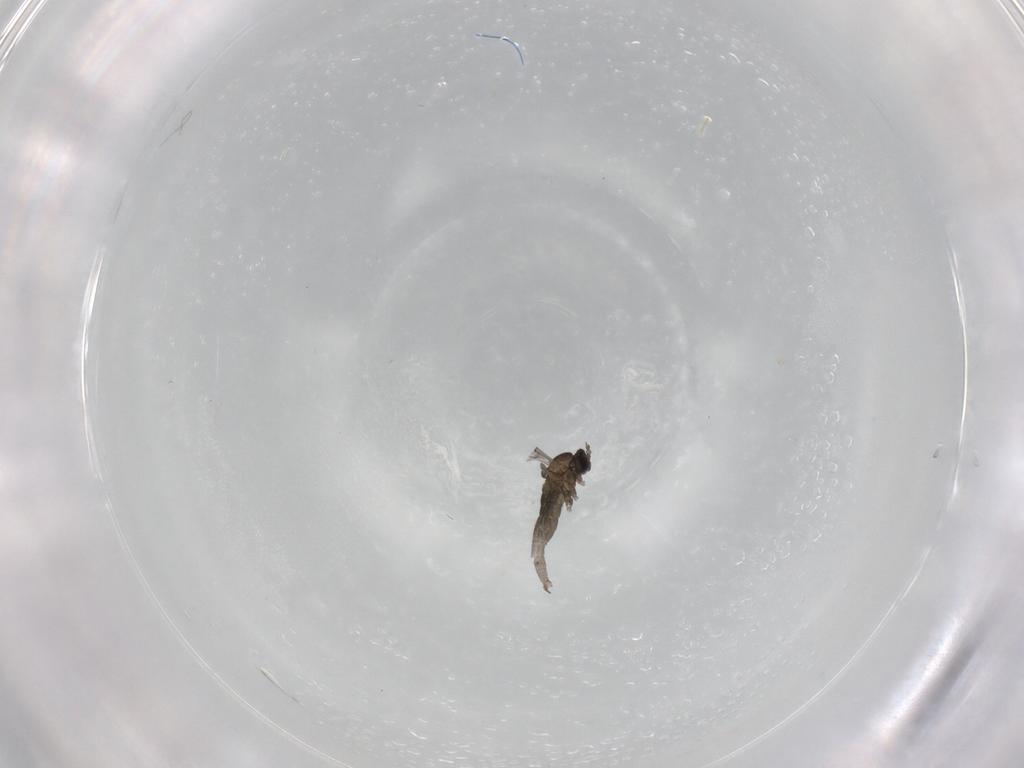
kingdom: Animalia
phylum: Arthropoda
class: Insecta
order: Diptera
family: Cecidomyiidae
